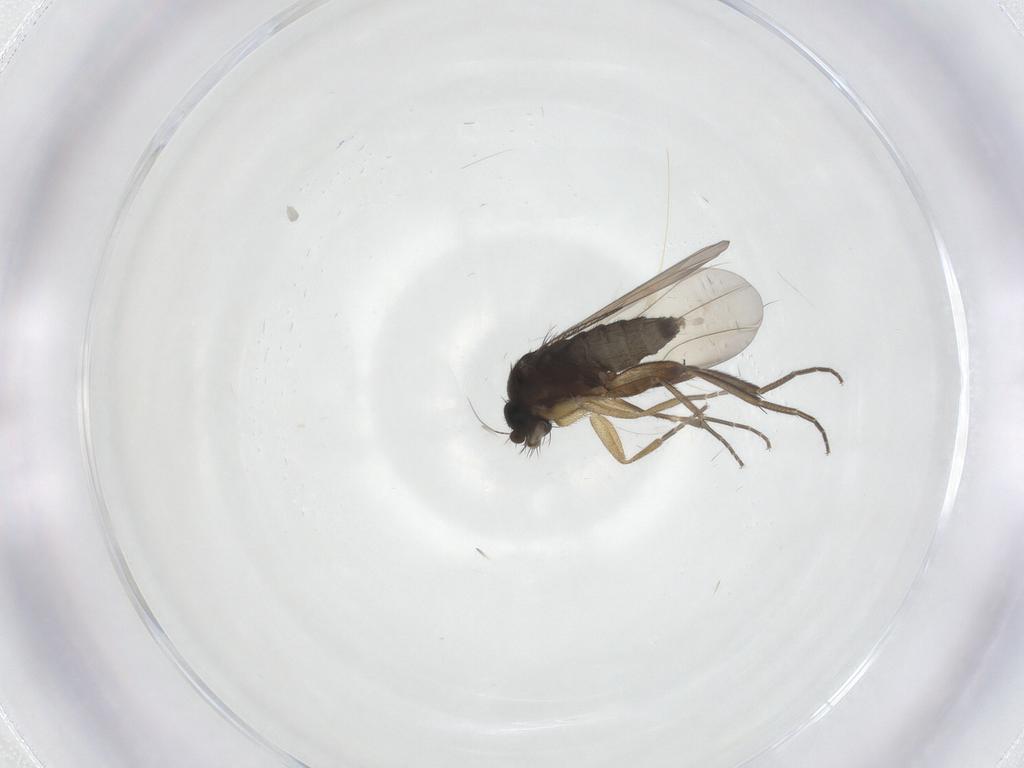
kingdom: Animalia
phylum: Arthropoda
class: Insecta
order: Diptera
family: Phoridae
